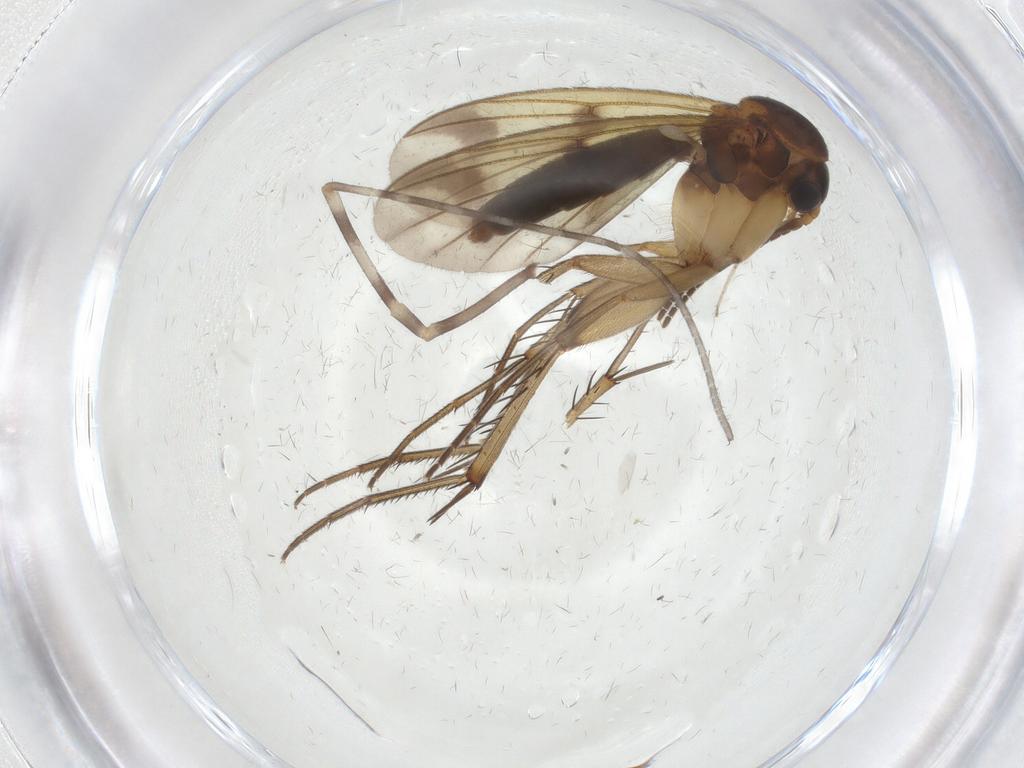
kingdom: Animalia
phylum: Arthropoda
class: Insecta
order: Diptera
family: Chironomidae
